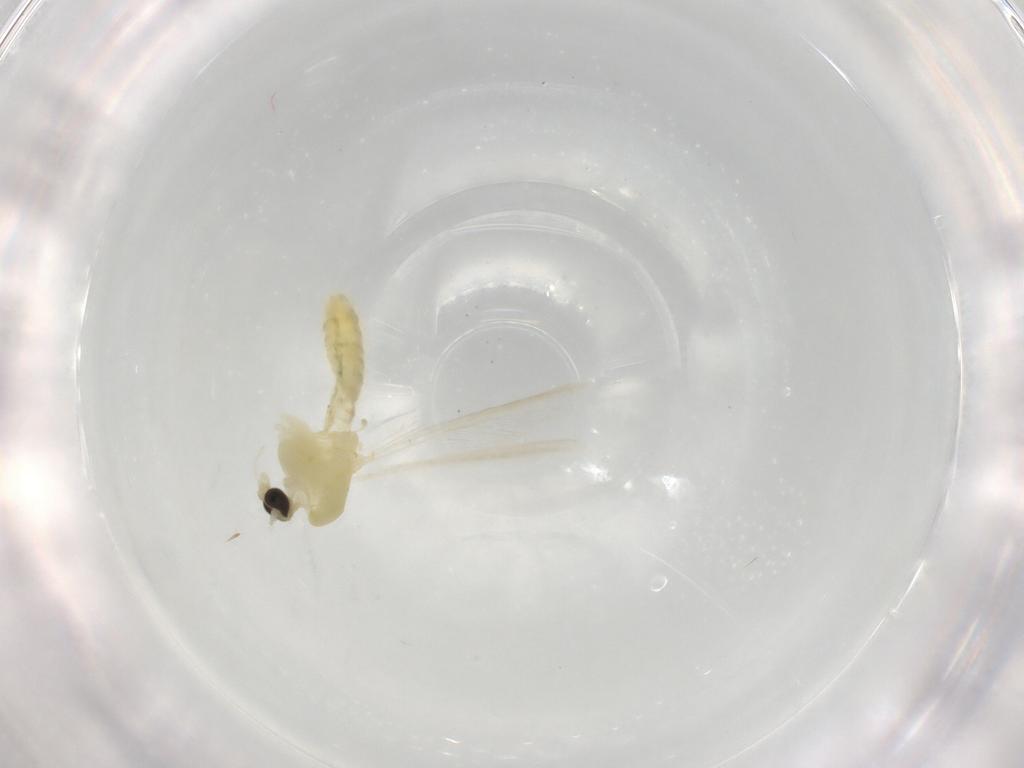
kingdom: Animalia
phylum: Arthropoda
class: Insecta
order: Diptera
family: Chironomidae
